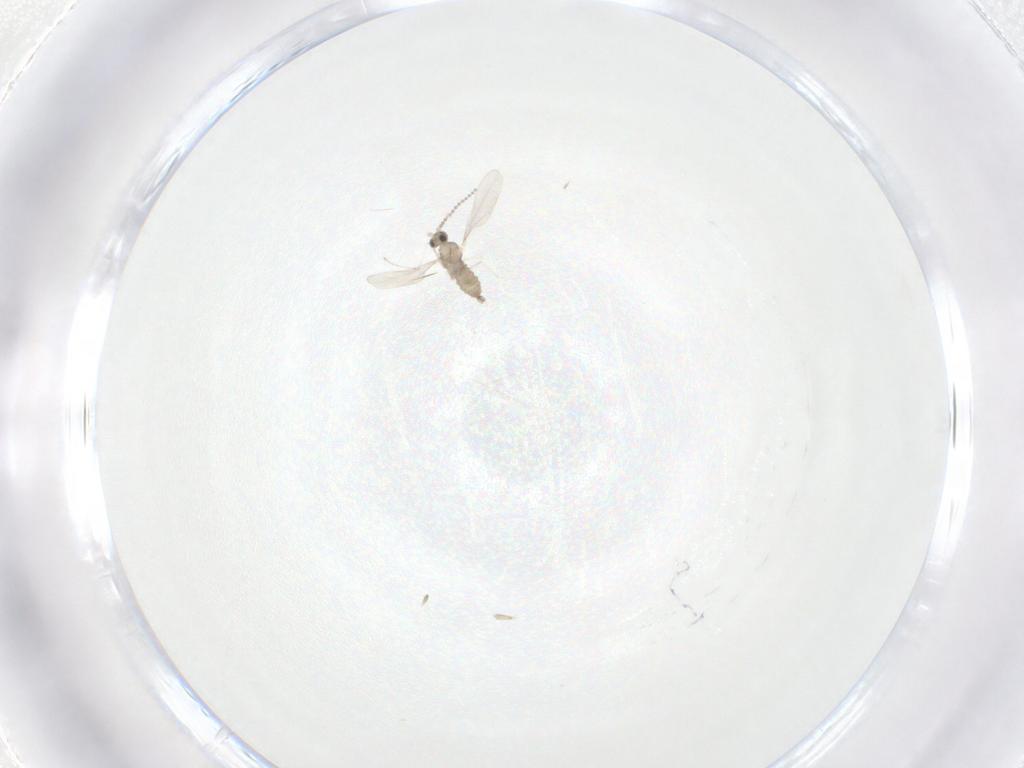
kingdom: Animalia
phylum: Arthropoda
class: Insecta
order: Diptera
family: Cecidomyiidae
